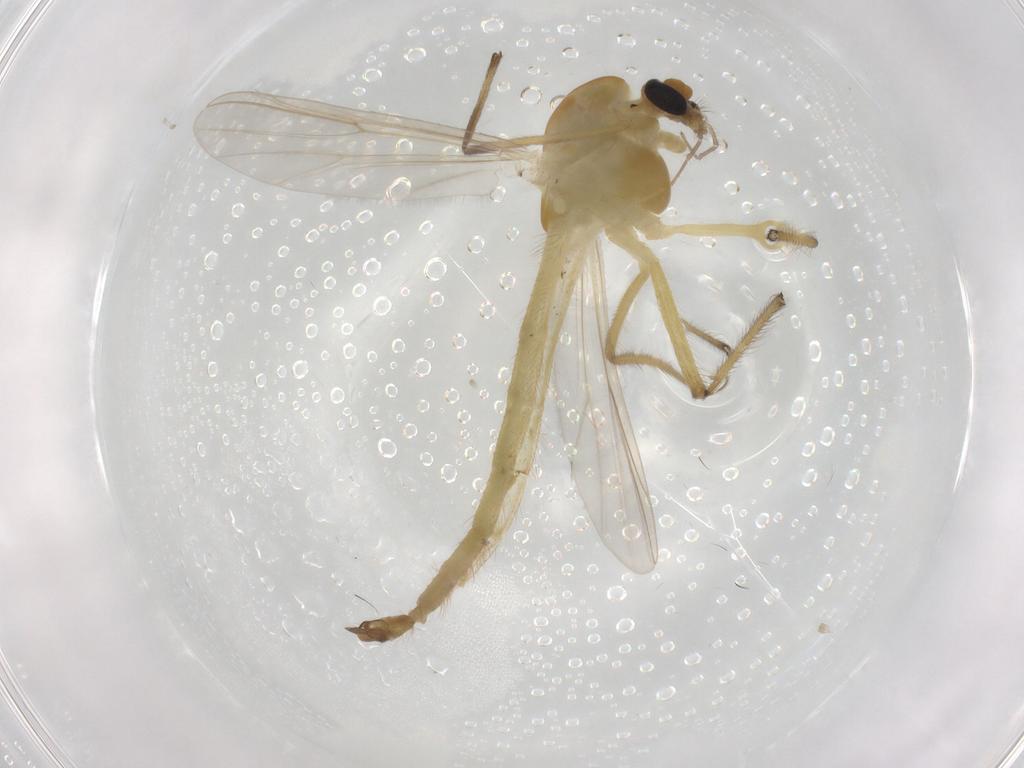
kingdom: Animalia
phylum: Arthropoda
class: Insecta
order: Diptera
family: Chironomidae
